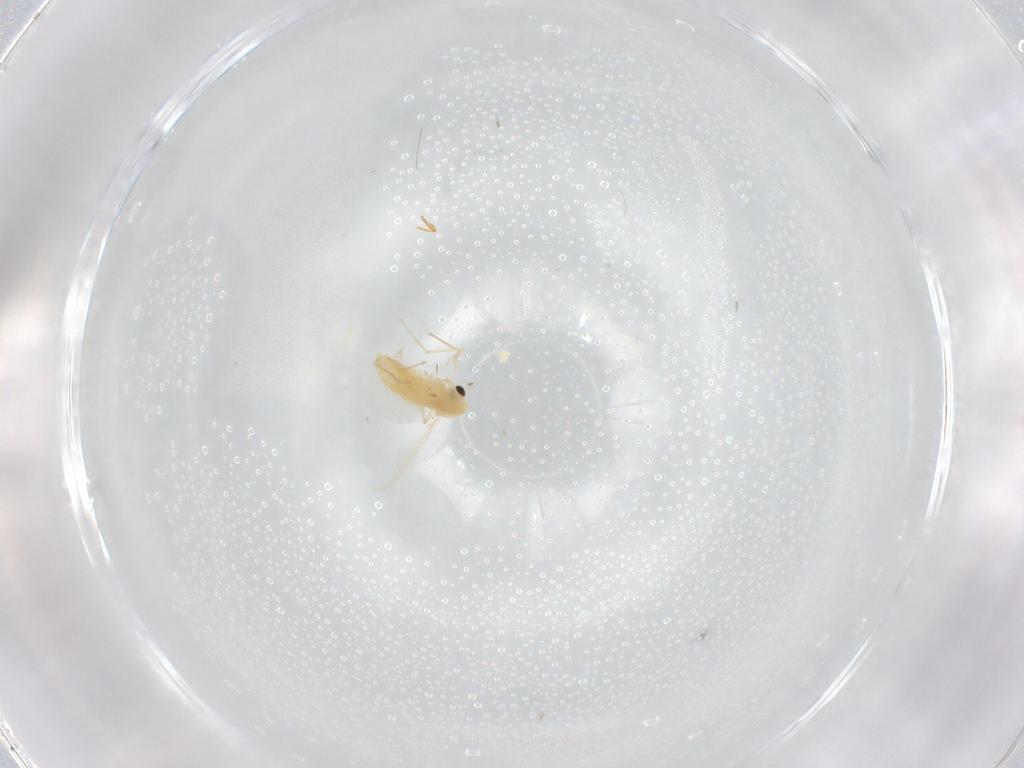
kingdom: Animalia
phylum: Arthropoda
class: Insecta
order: Diptera
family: Chironomidae
